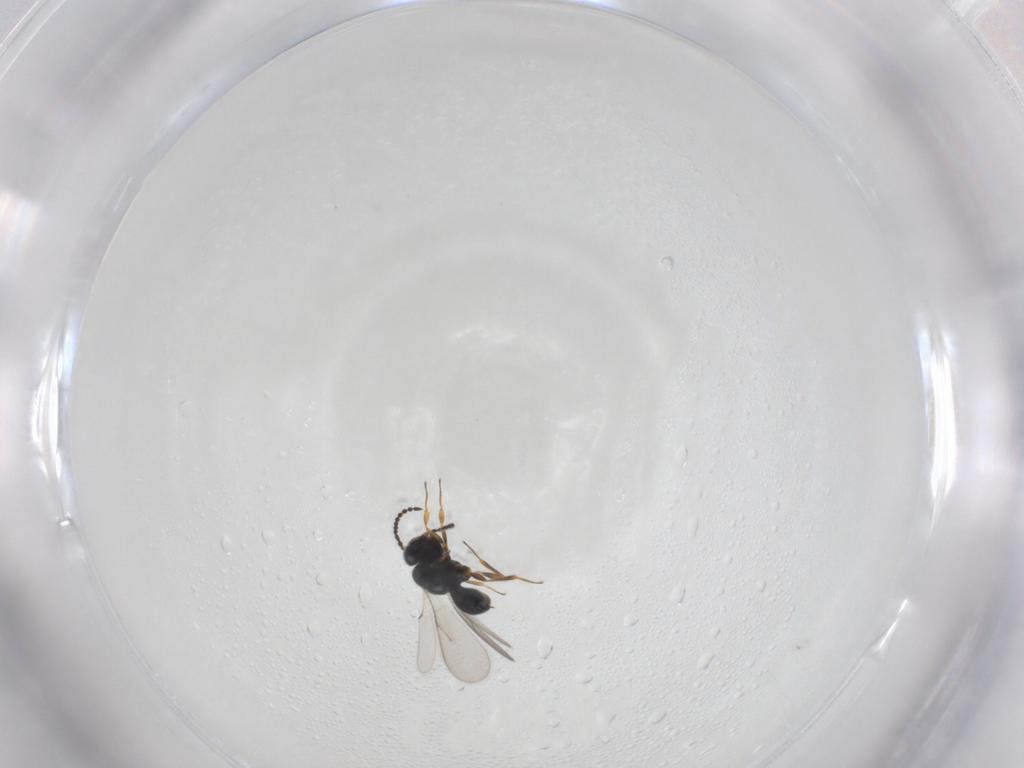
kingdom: Animalia
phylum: Arthropoda
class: Insecta
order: Hymenoptera
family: Scelionidae
